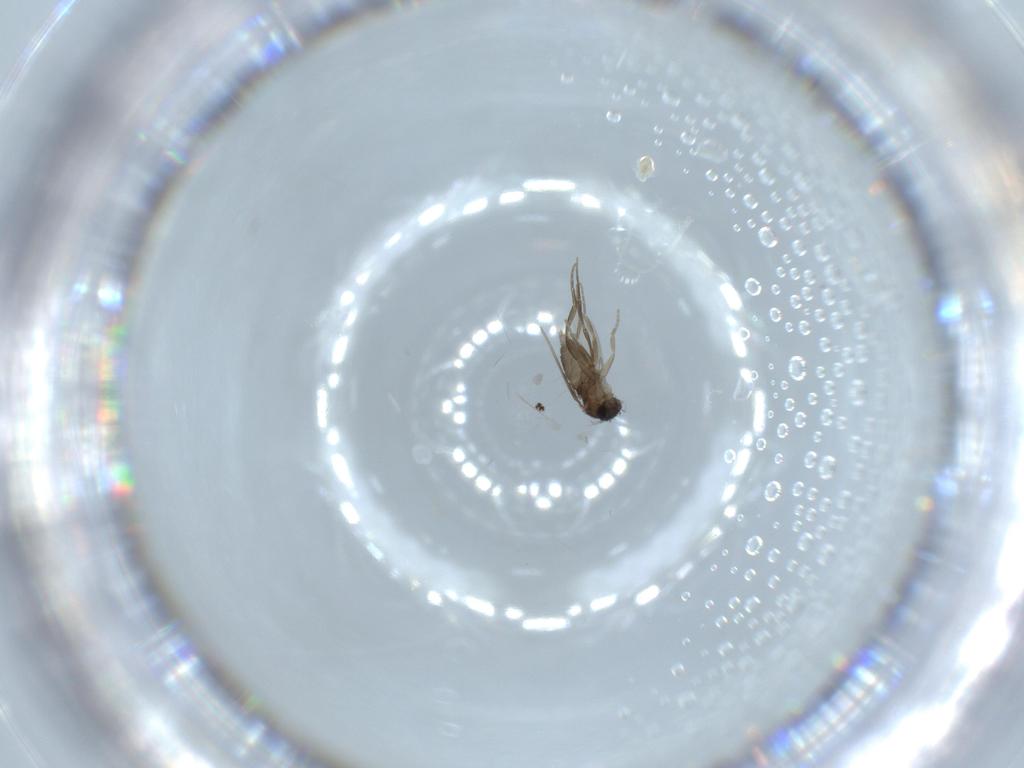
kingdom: Animalia
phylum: Arthropoda
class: Insecta
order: Diptera
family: Phoridae
